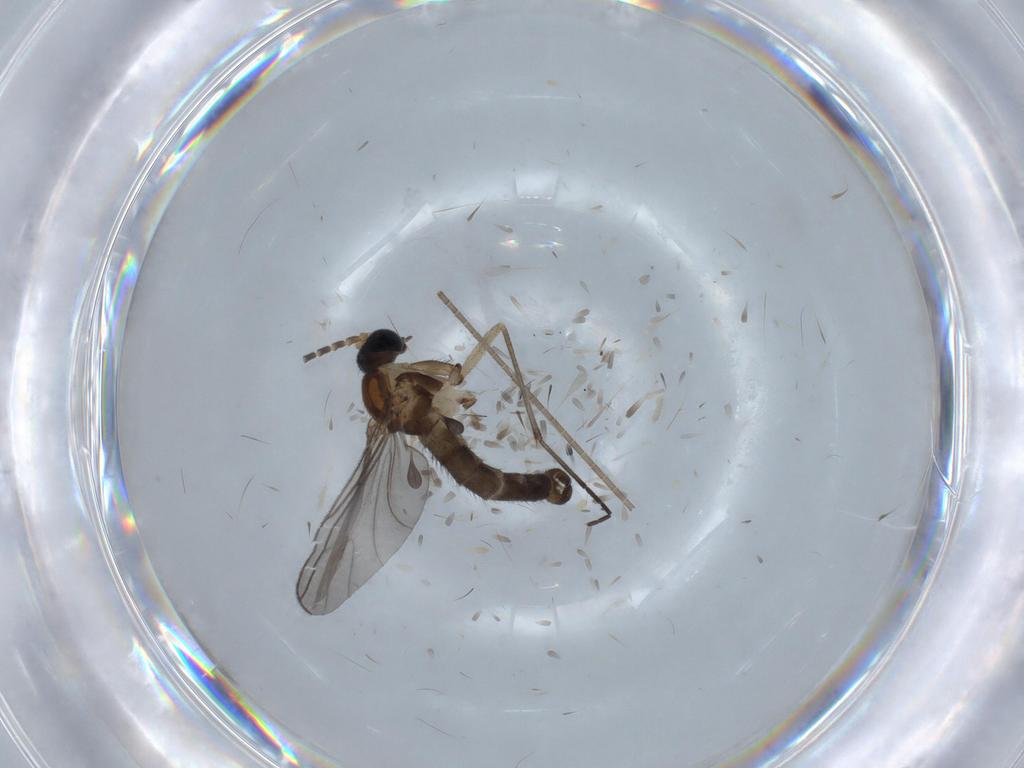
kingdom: Animalia
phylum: Arthropoda
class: Insecta
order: Diptera
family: Sciaridae
